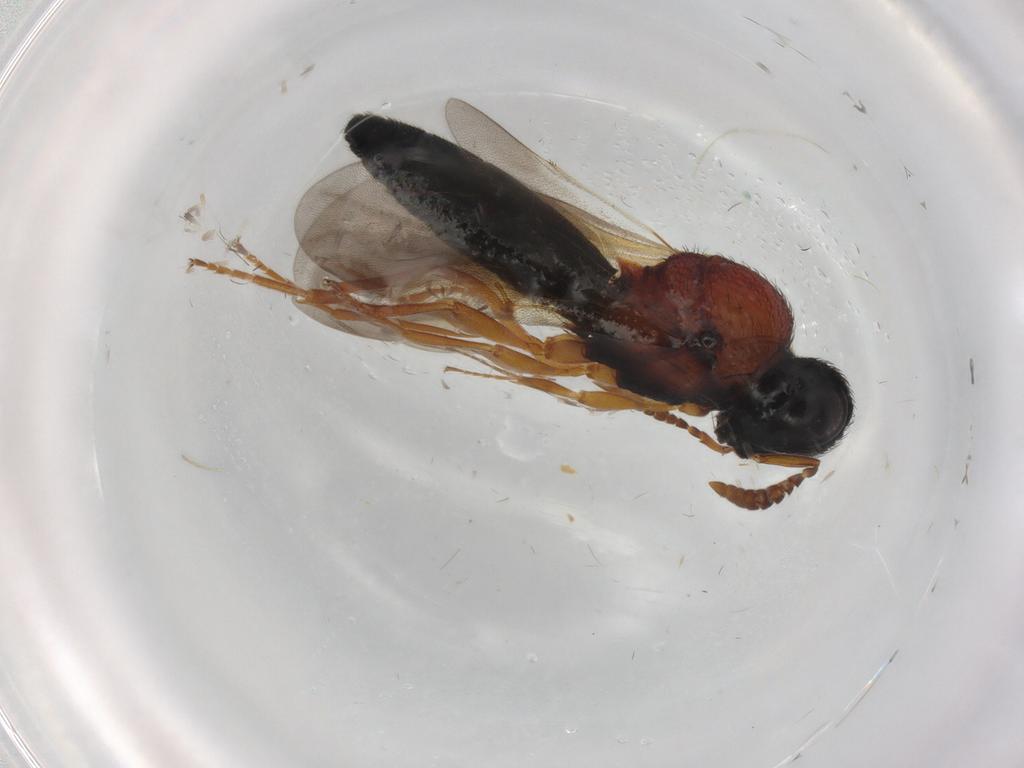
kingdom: Animalia
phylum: Arthropoda
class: Insecta
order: Hymenoptera
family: Scelionidae
